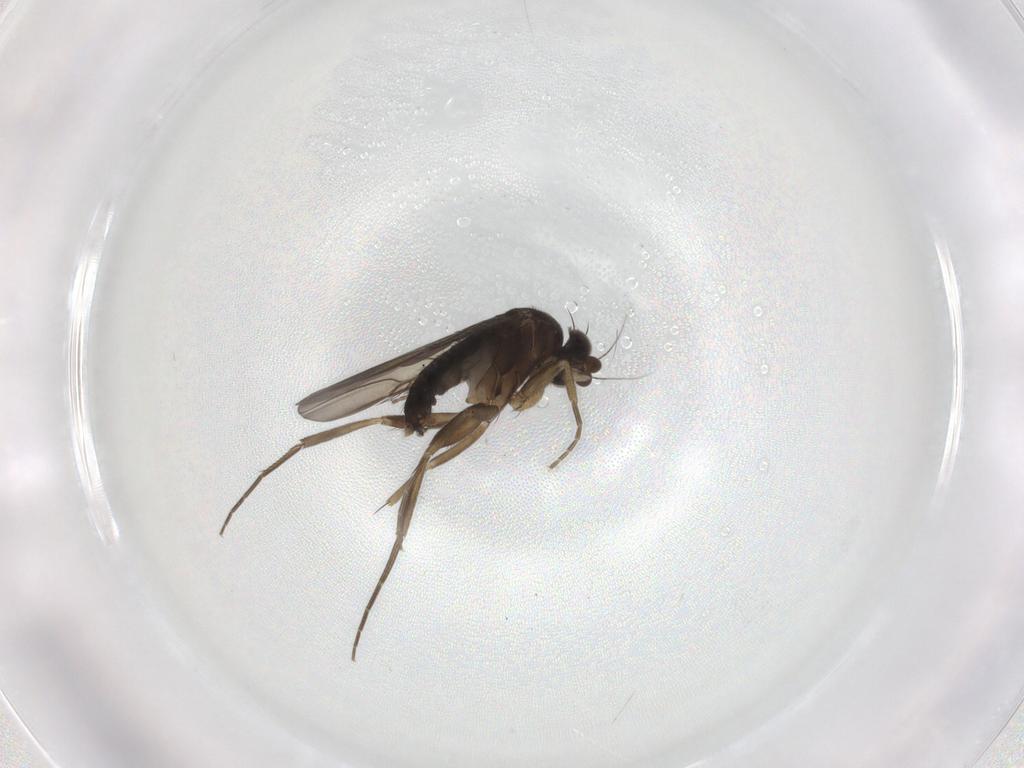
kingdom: Animalia
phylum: Arthropoda
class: Insecta
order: Diptera
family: Phoridae
